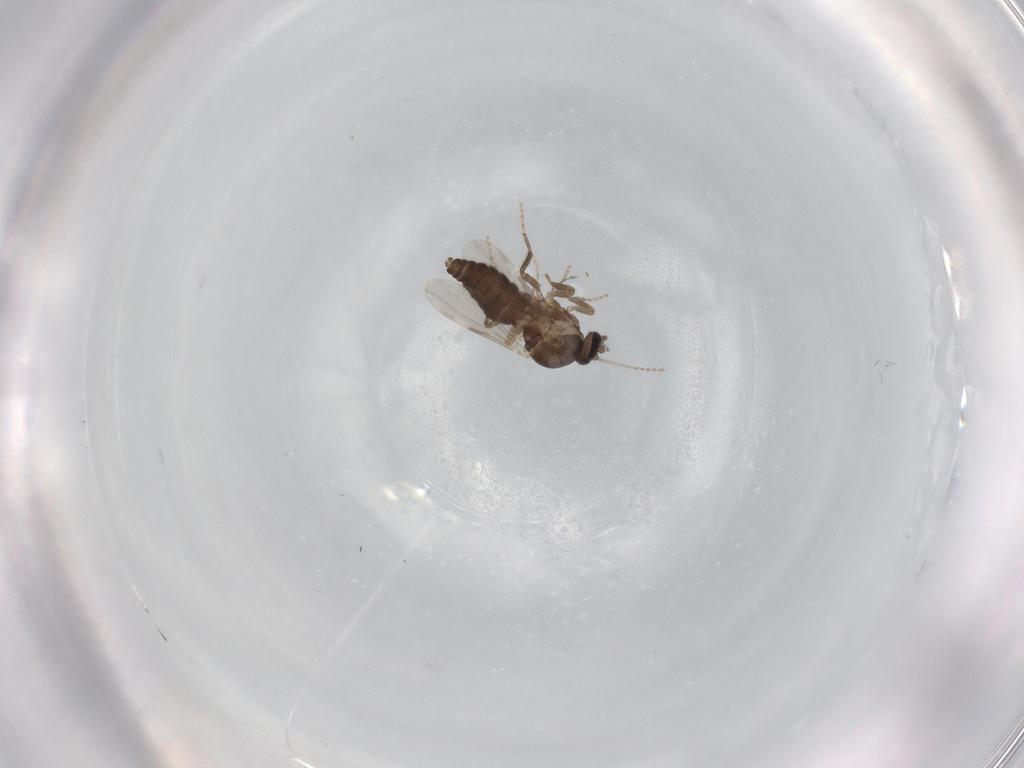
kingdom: Animalia
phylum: Arthropoda
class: Insecta
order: Diptera
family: Ceratopogonidae
